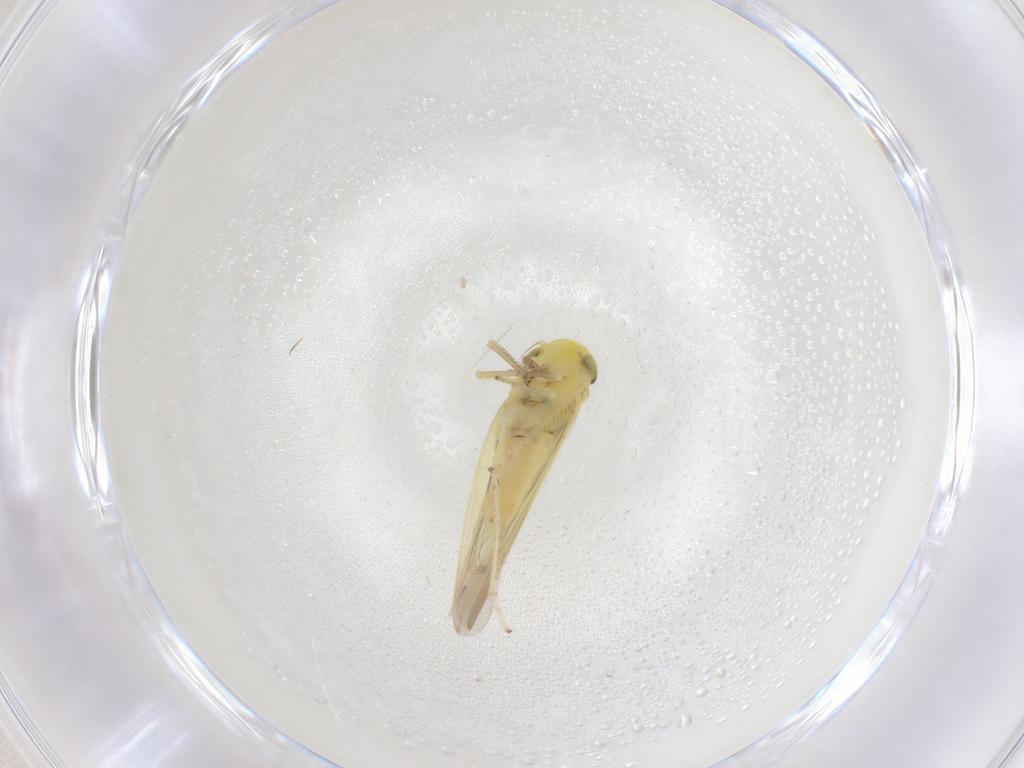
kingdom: Animalia
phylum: Arthropoda
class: Insecta
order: Hemiptera
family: Cicadellidae
